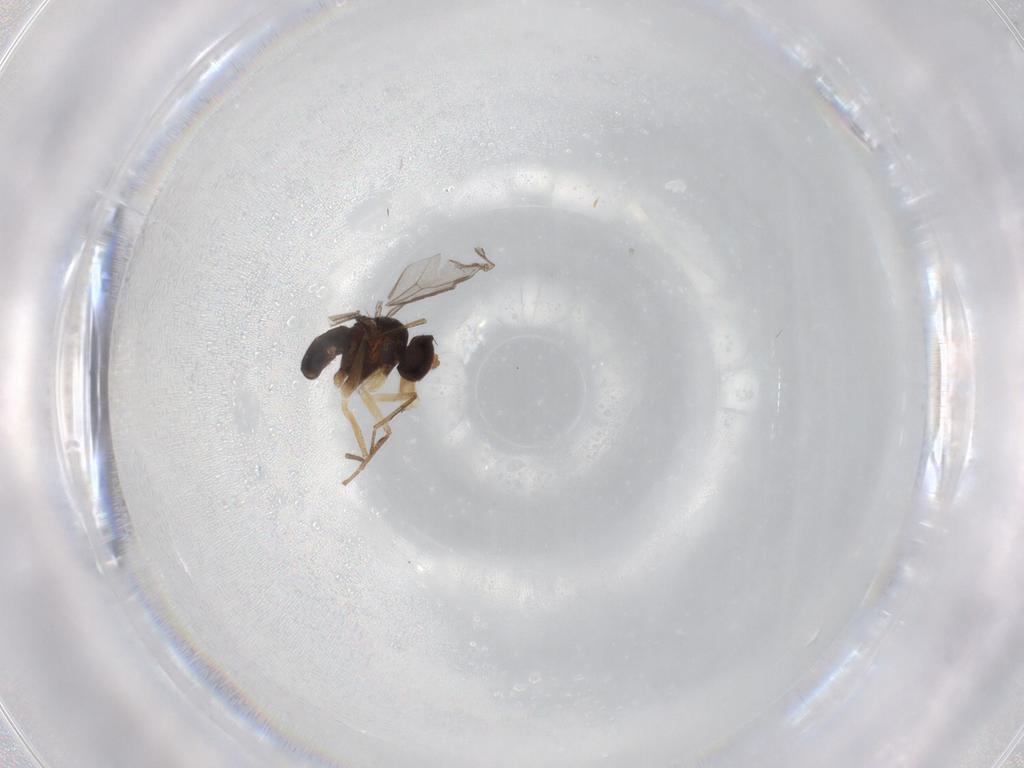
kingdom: Animalia
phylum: Arthropoda
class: Insecta
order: Diptera
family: Dolichopodidae
